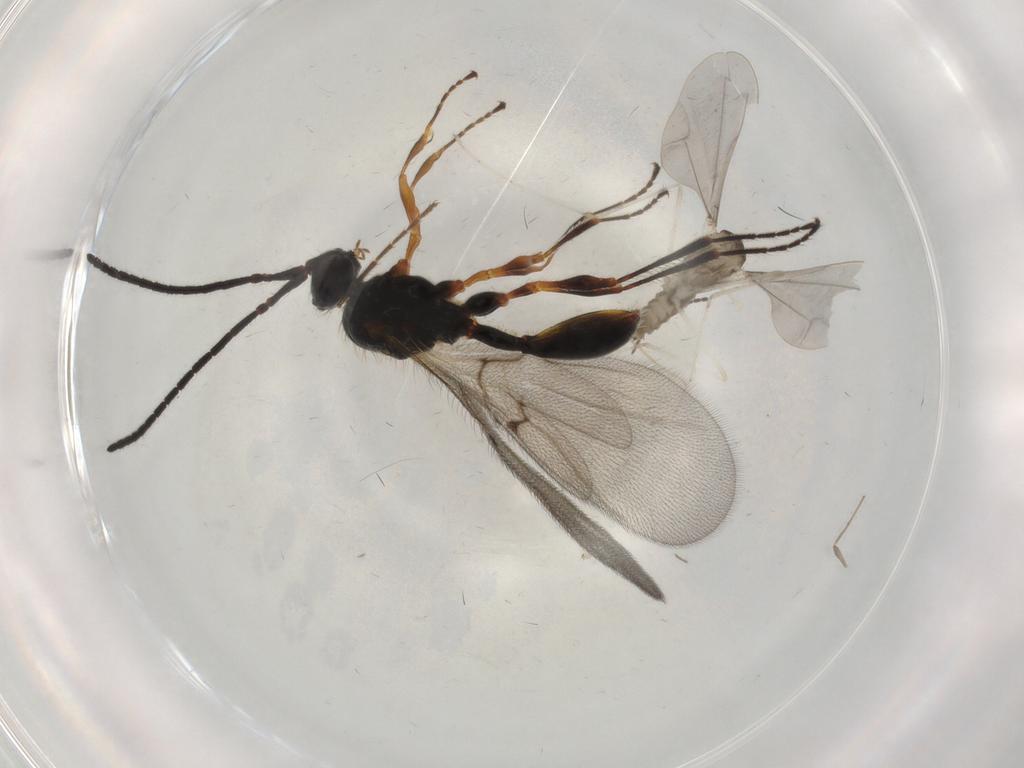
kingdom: Animalia
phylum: Arthropoda
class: Insecta
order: Hymenoptera
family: Diapriidae
